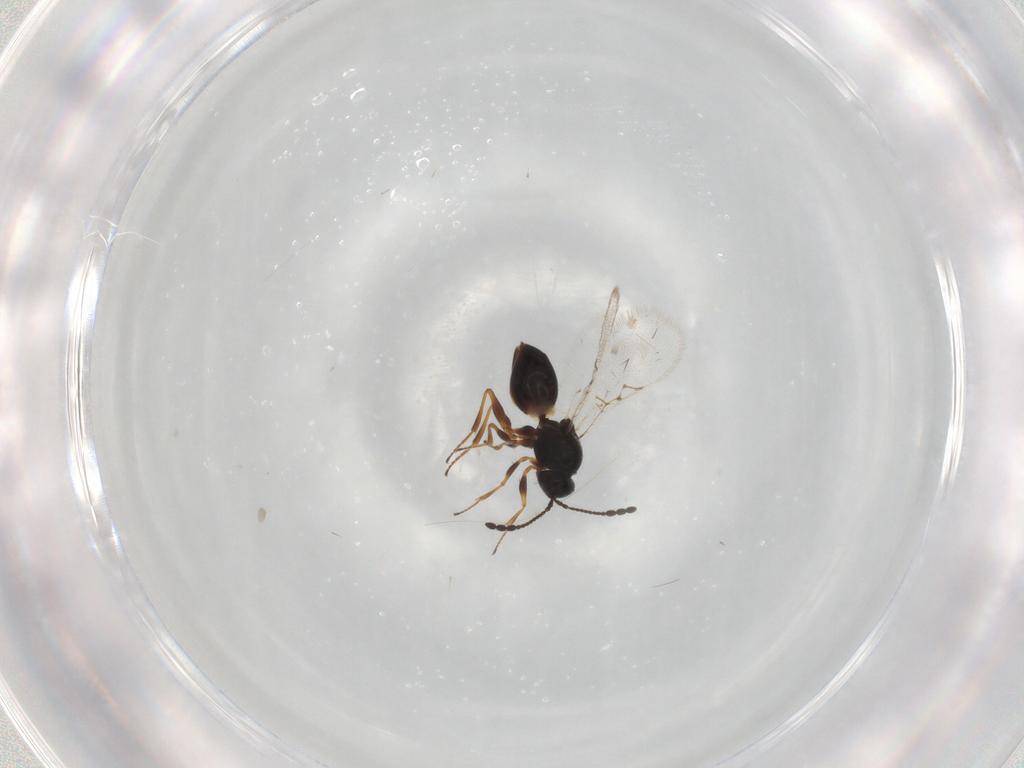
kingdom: Animalia
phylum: Arthropoda
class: Insecta
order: Hymenoptera
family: Figitidae
